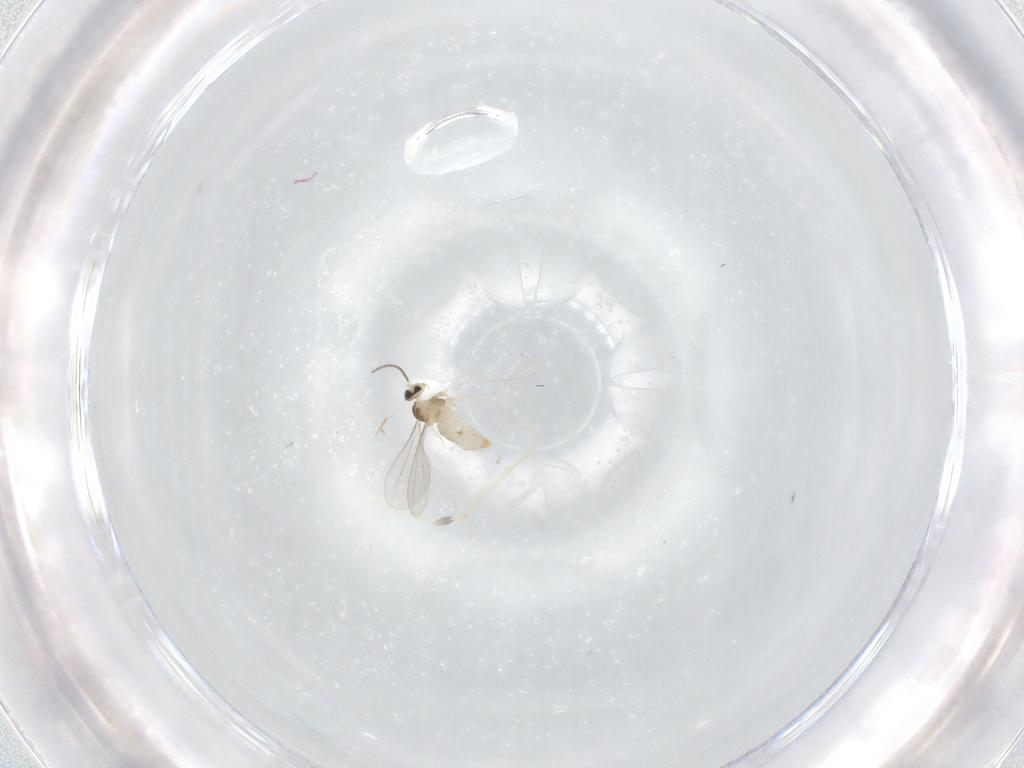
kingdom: Animalia
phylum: Arthropoda
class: Insecta
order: Diptera
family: Cecidomyiidae
